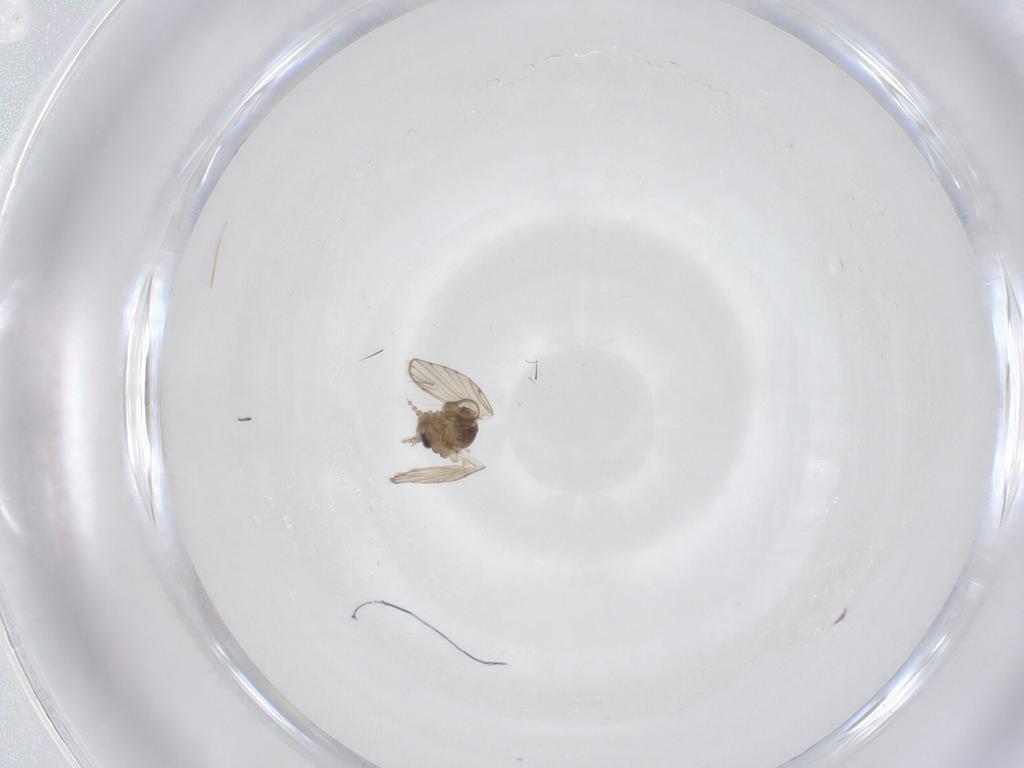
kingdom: Animalia
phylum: Arthropoda
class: Insecta
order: Diptera
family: Psychodidae
